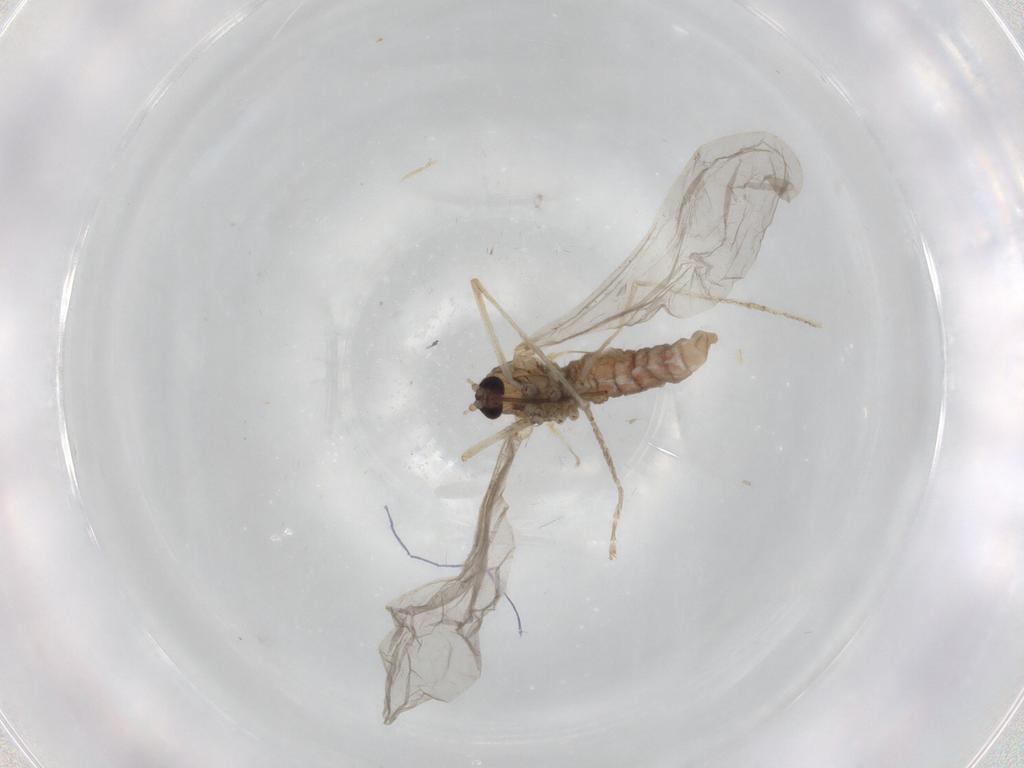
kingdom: Animalia
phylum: Arthropoda
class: Insecta
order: Diptera
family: Cecidomyiidae
